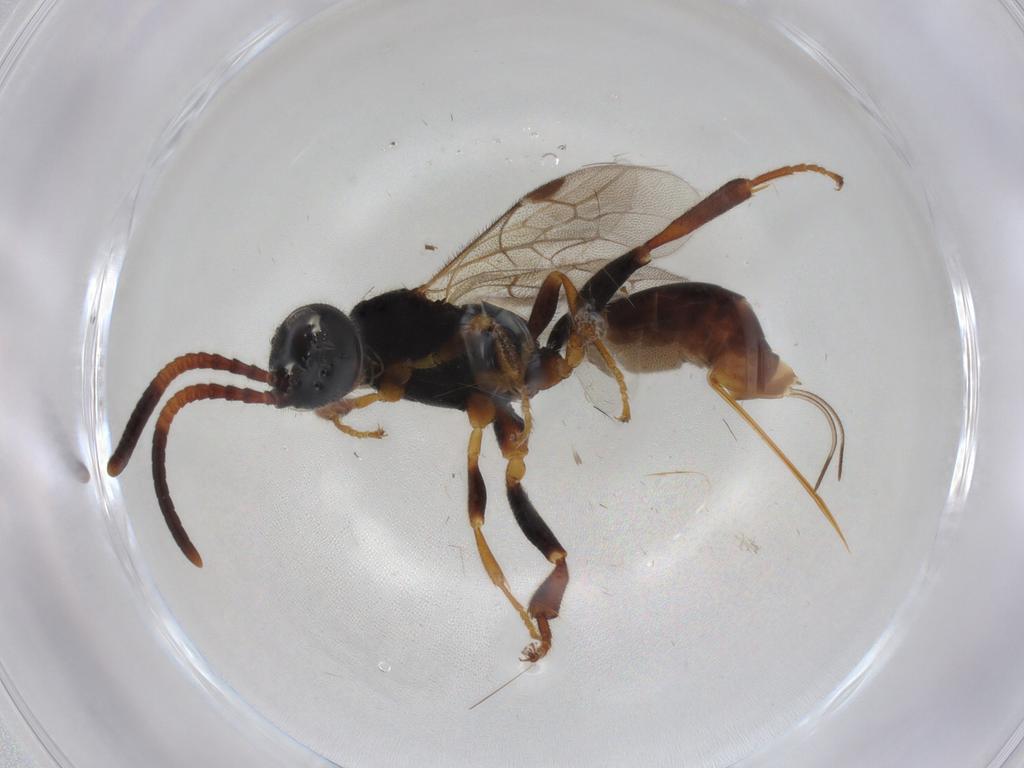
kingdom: Animalia
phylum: Arthropoda
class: Insecta
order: Hymenoptera
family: Ichneumonidae
